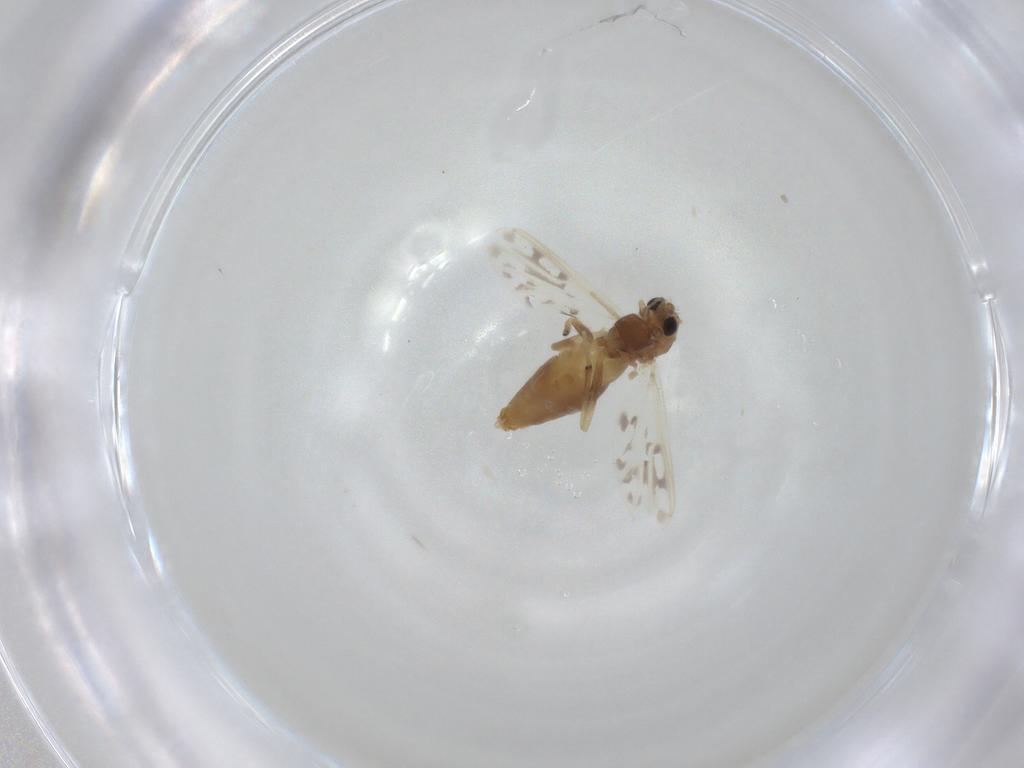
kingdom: Animalia
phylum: Arthropoda
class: Insecta
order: Diptera
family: Chironomidae
